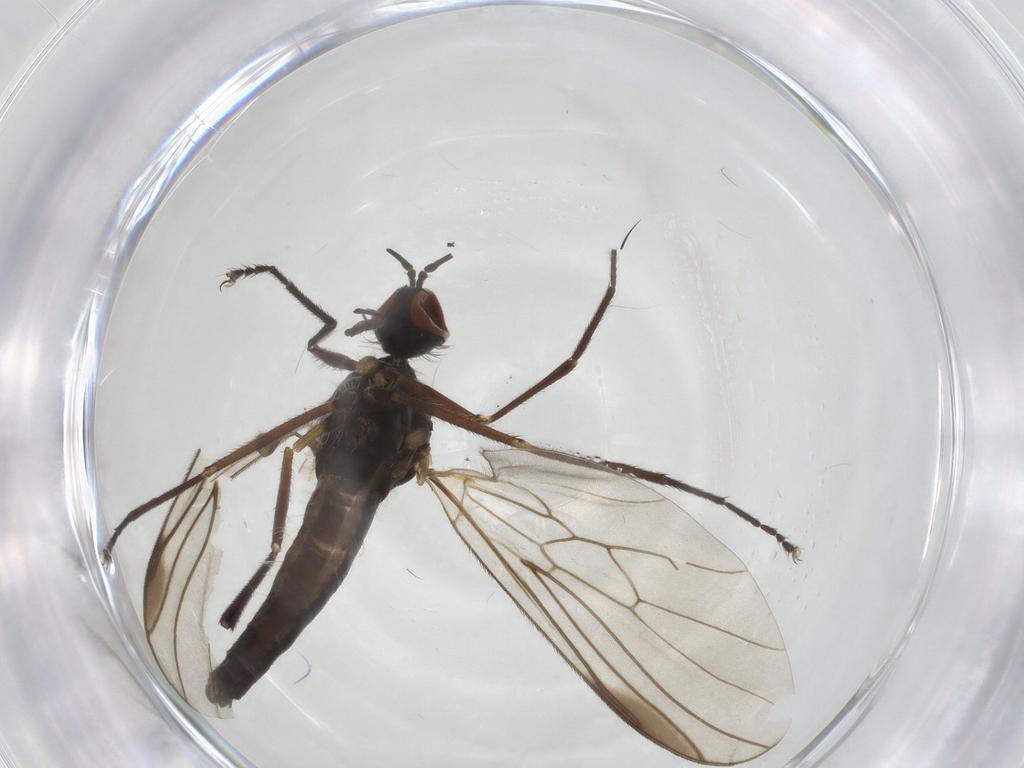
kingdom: Animalia
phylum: Arthropoda
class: Insecta
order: Diptera
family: Empididae
